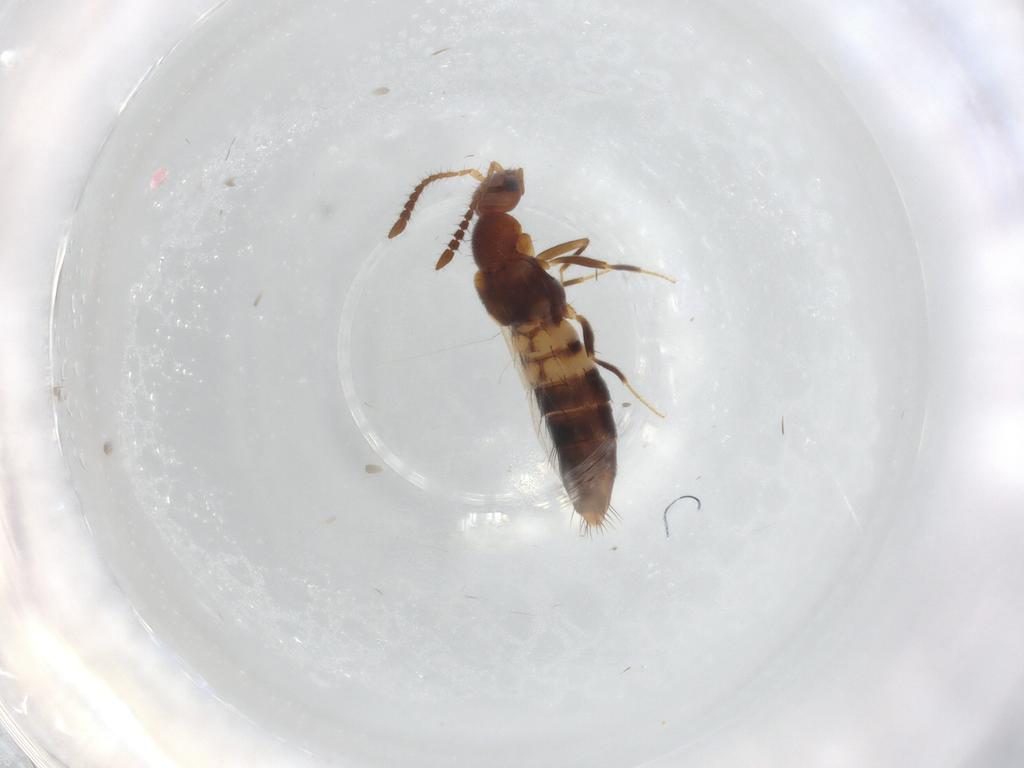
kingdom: Animalia
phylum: Arthropoda
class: Insecta
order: Coleoptera
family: Staphylinidae
